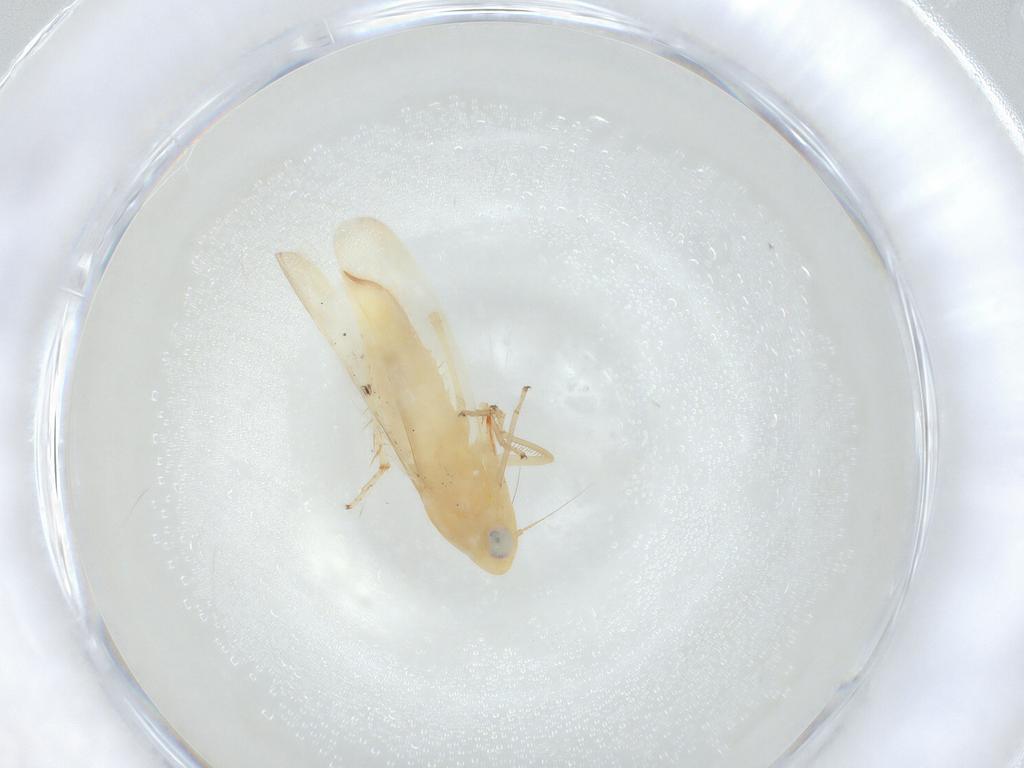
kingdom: Animalia
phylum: Arthropoda
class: Insecta
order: Hemiptera
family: Cicadellidae
